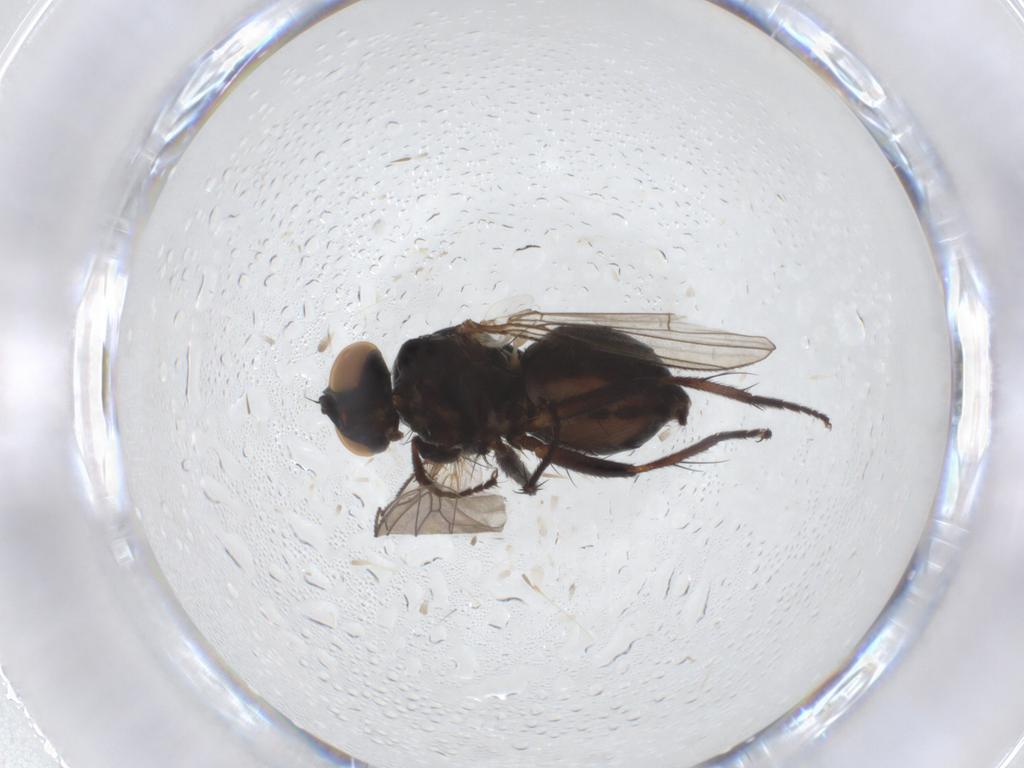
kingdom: Animalia
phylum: Arthropoda
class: Insecta
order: Diptera
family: Muscidae
